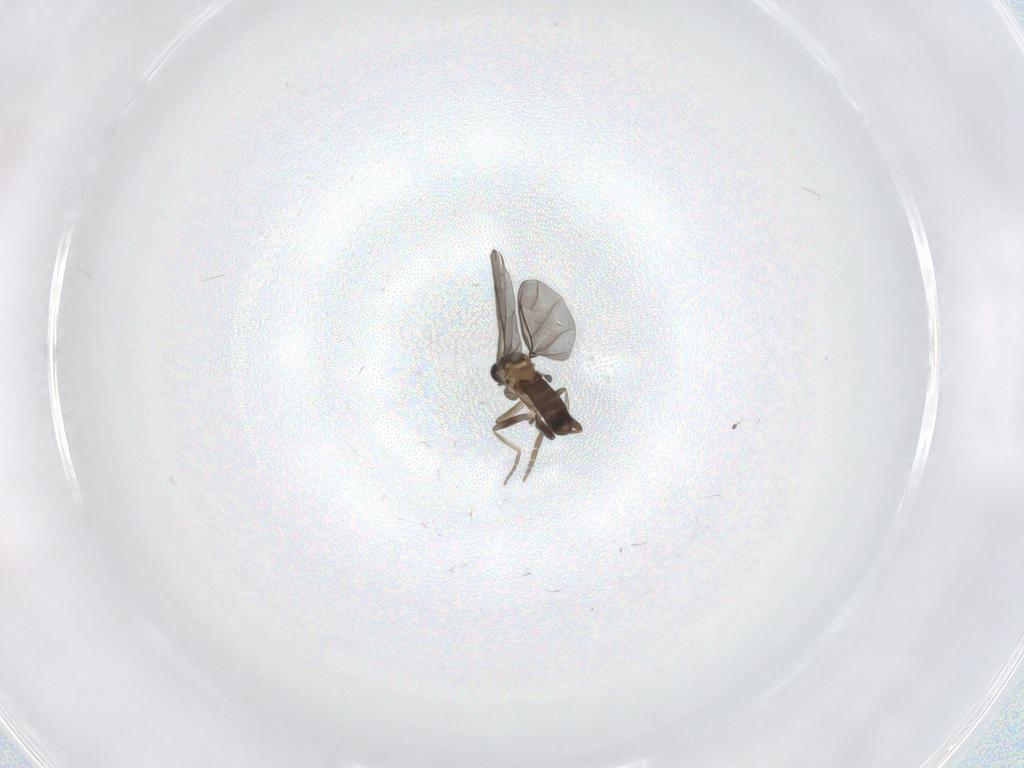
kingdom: Animalia
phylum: Arthropoda
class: Insecta
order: Diptera
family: Phoridae
